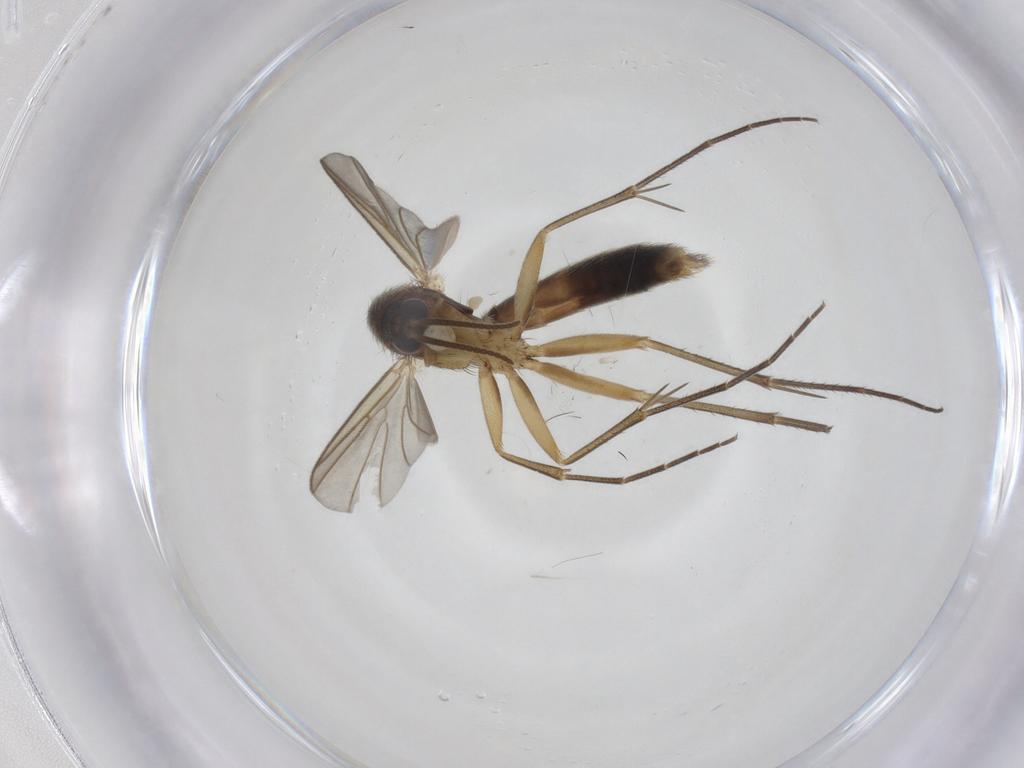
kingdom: Animalia
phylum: Arthropoda
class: Insecta
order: Diptera
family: Mycetophilidae
